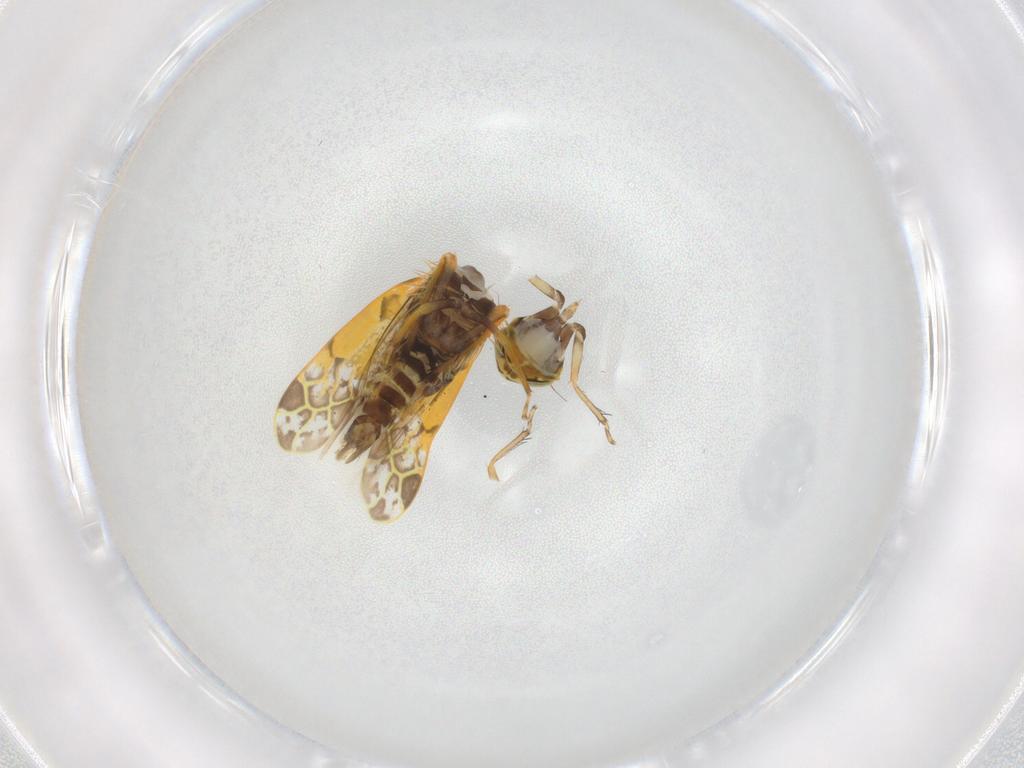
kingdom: Animalia
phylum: Arthropoda
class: Insecta
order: Hemiptera
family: Cicadellidae
